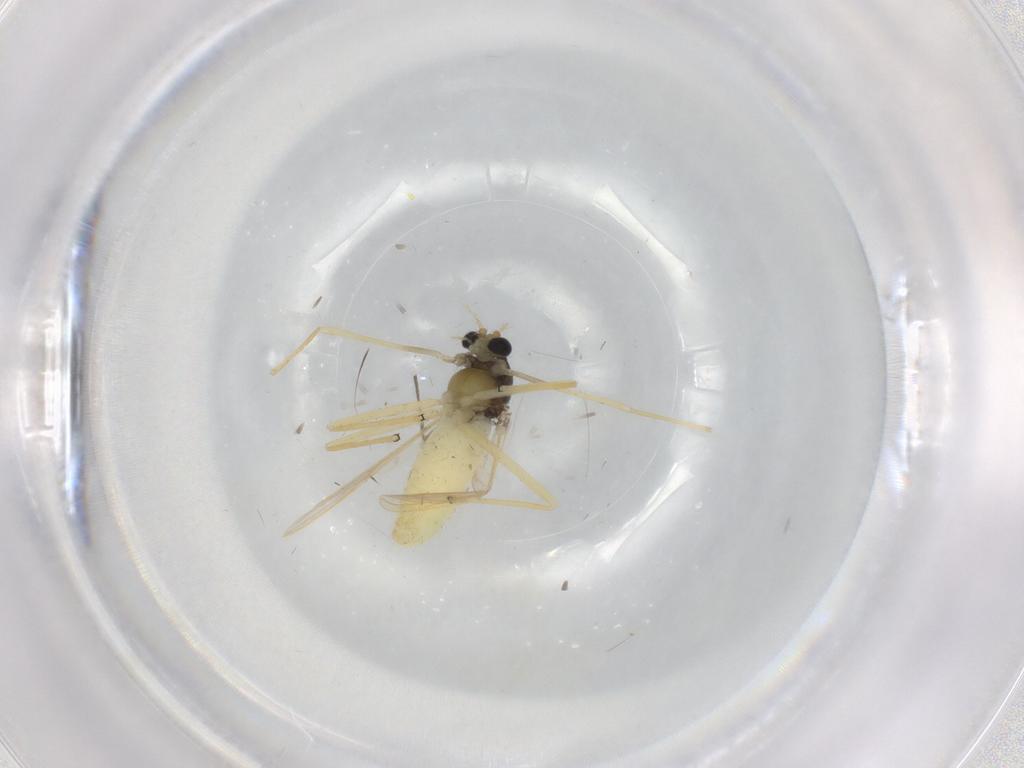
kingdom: Animalia
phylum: Arthropoda
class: Insecta
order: Diptera
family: Chironomidae
